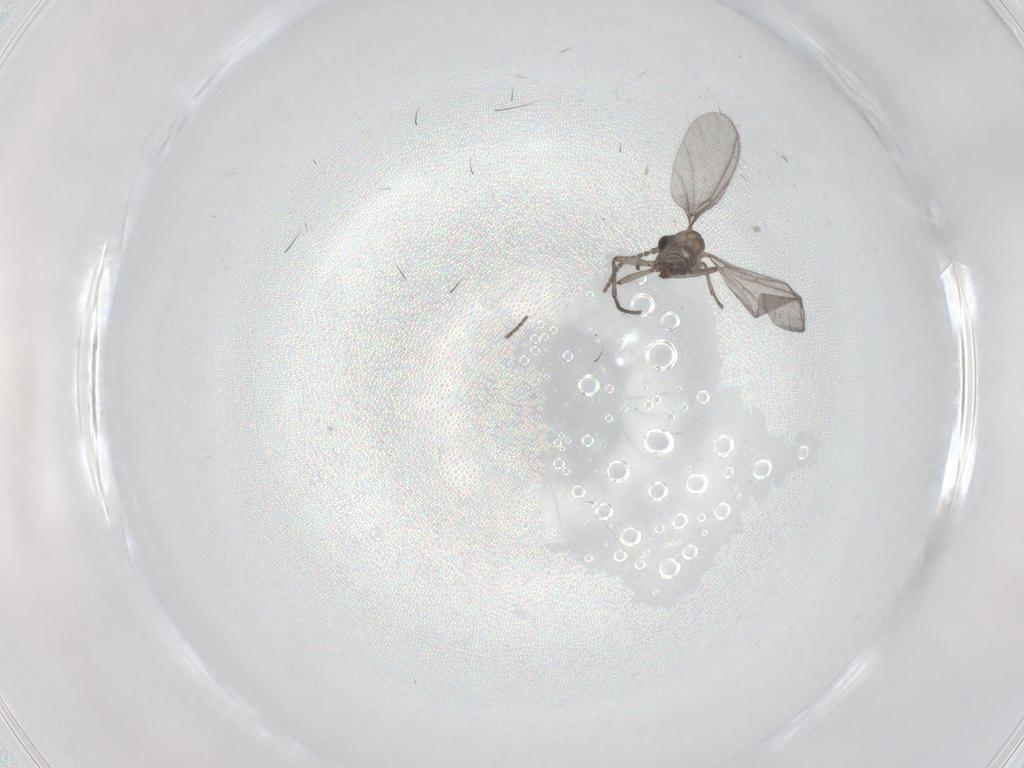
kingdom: Animalia
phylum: Arthropoda
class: Insecta
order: Diptera
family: Sciaridae
